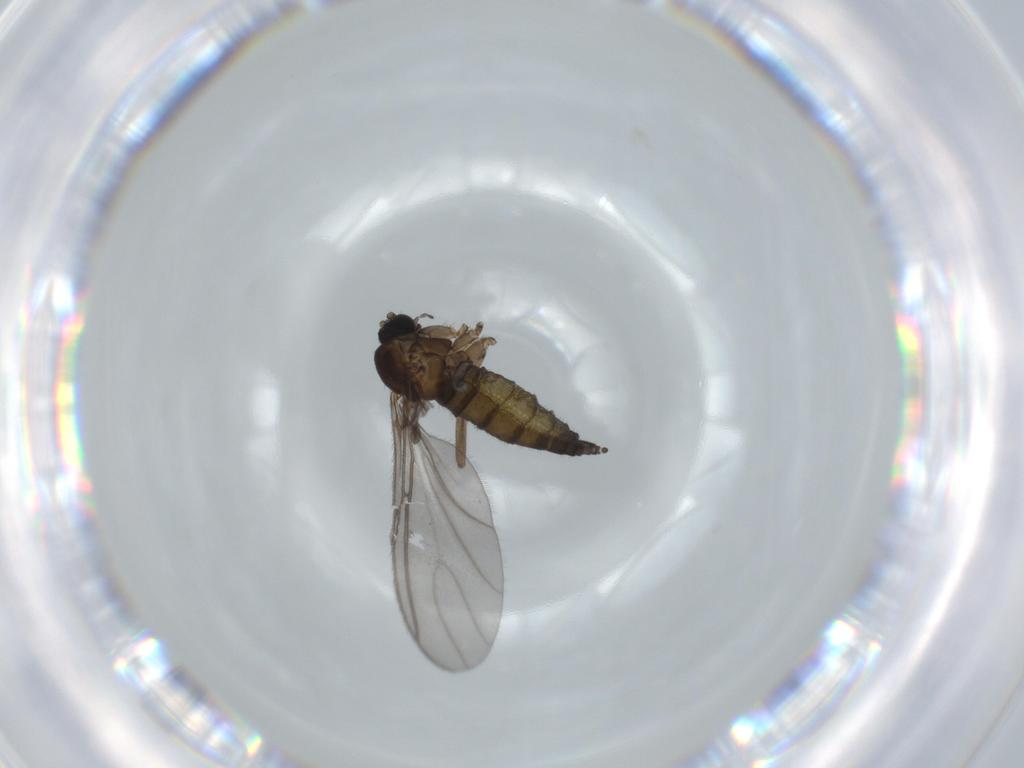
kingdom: Animalia
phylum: Arthropoda
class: Insecta
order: Diptera
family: Sciaridae
